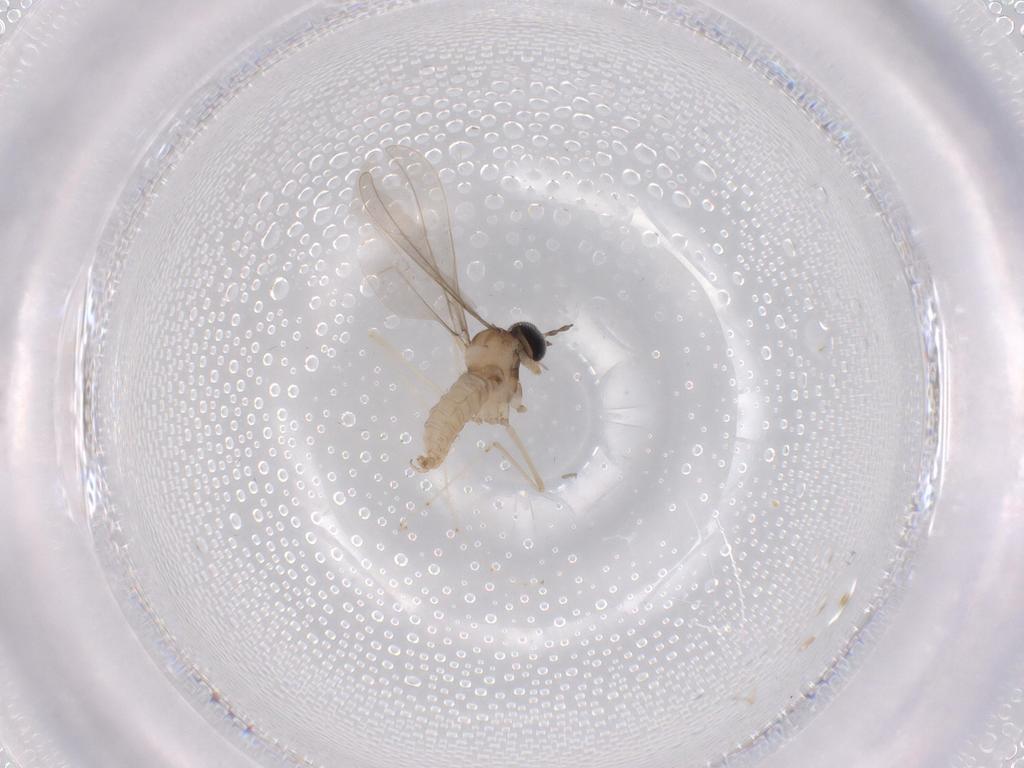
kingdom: Animalia
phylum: Arthropoda
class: Insecta
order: Diptera
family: Cecidomyiidae
